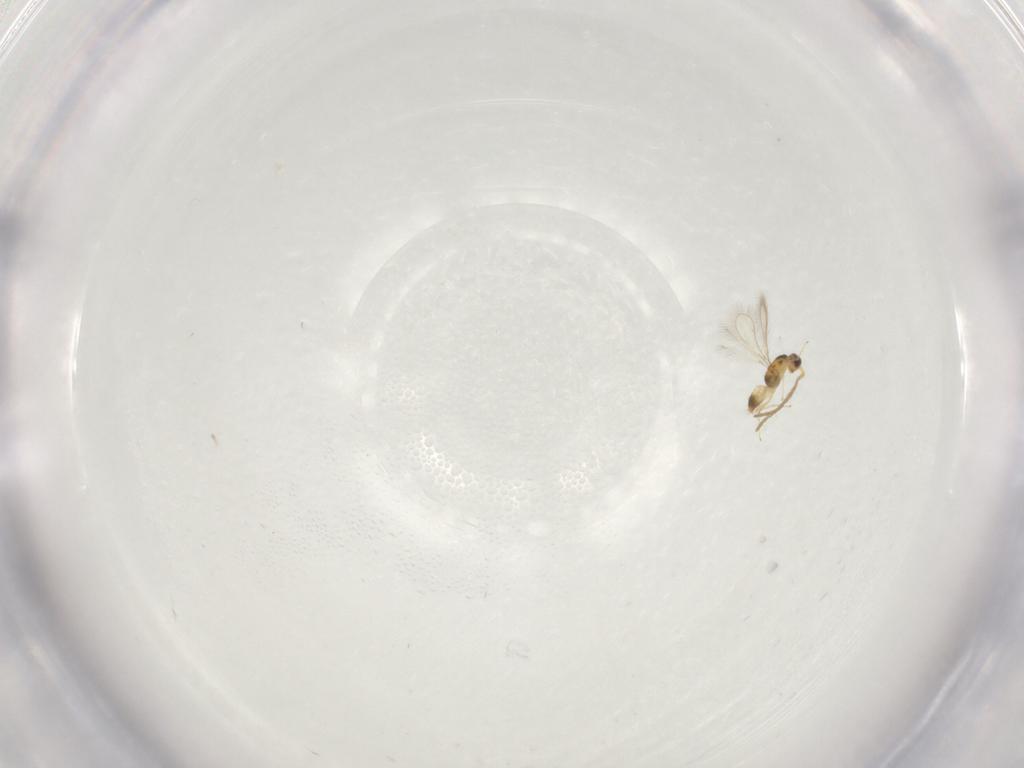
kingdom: Animalia
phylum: Arthropoda
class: Insecta
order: Hymenoptera
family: Mymaridae
